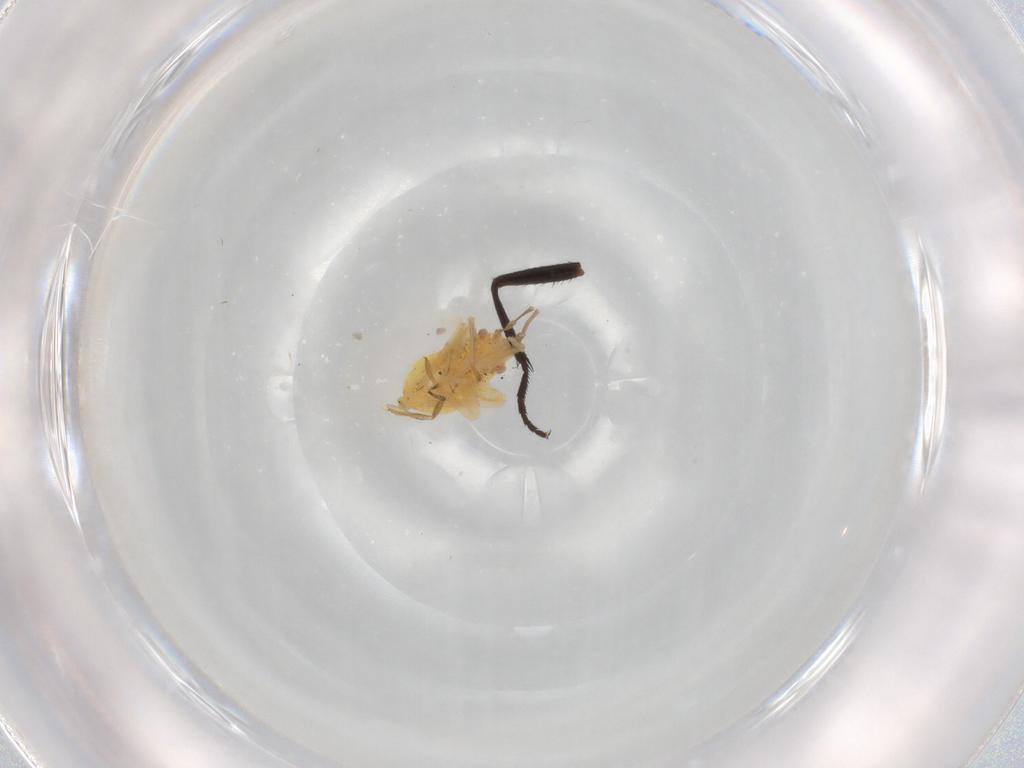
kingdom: Animalia
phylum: Arthropoda
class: Insecta
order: Hemiptera
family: Miridae
